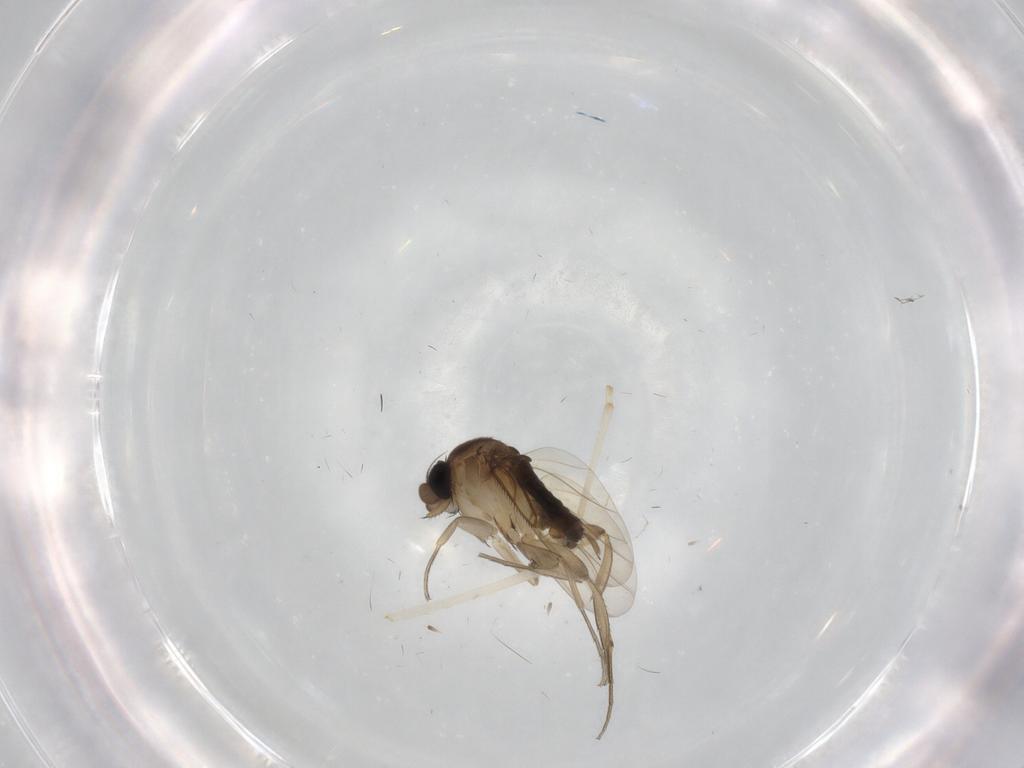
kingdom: Animalia
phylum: Arthropoda
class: Insecta
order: Diptera
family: Phoridae
